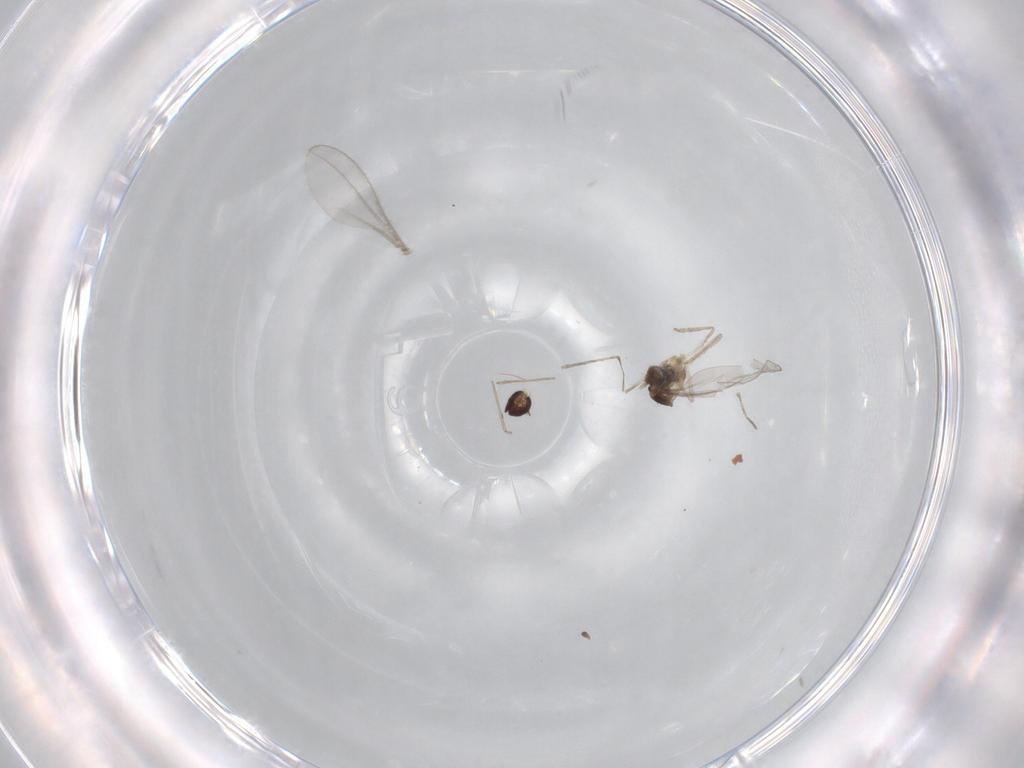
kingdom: Animalia
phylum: Arthropoda
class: Insecta
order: Diptera
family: Cecidomyiidae
